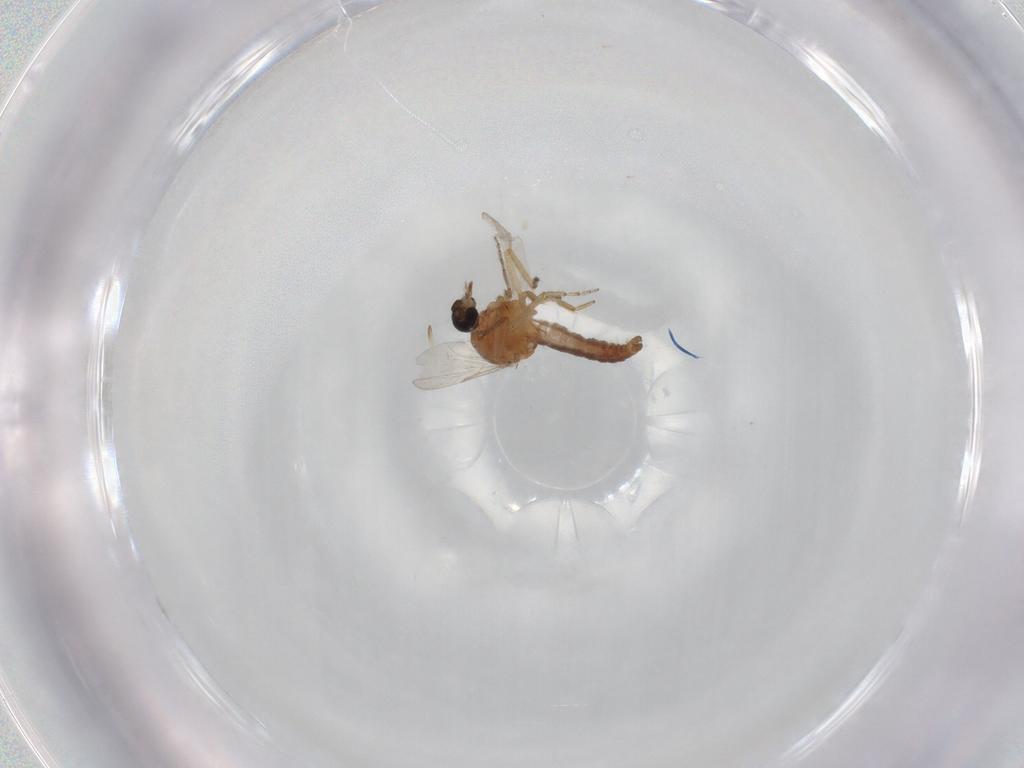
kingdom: Animalia
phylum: Arthropoda
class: Insecta
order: Diptera
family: Ceratopogonidae
